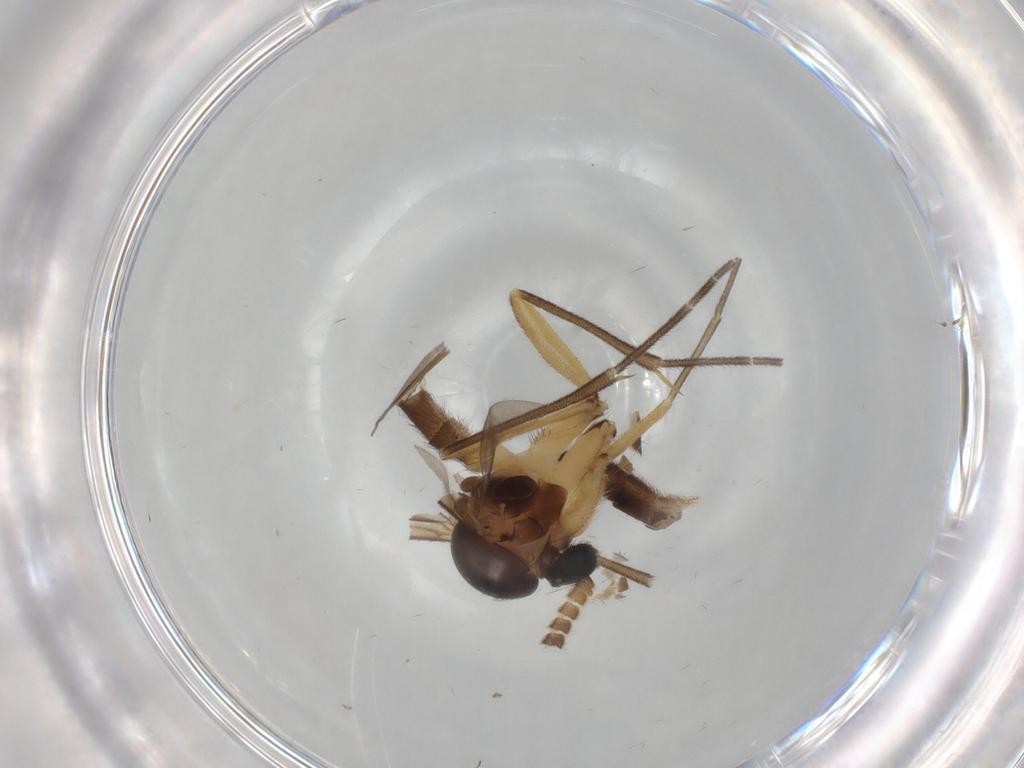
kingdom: Animalia
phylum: Arthropoda
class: Insecta
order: Diptera
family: Mycetophilidae
